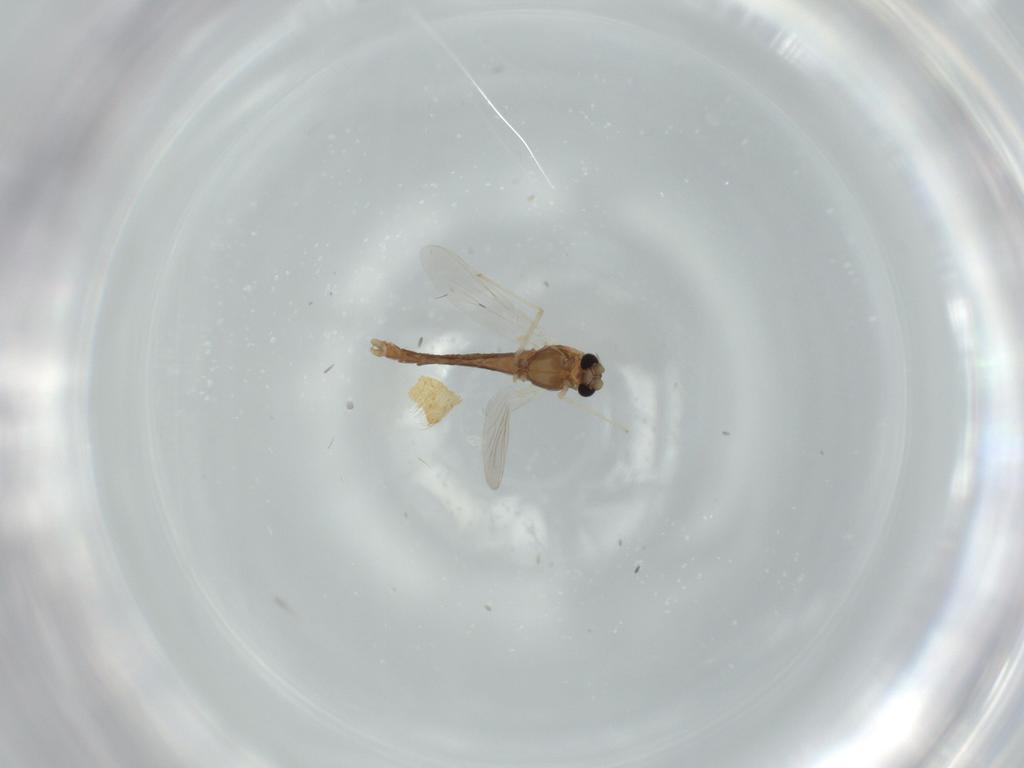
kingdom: Animalia
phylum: Arthropoda
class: Insecta
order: Diptera
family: Chironomidae
